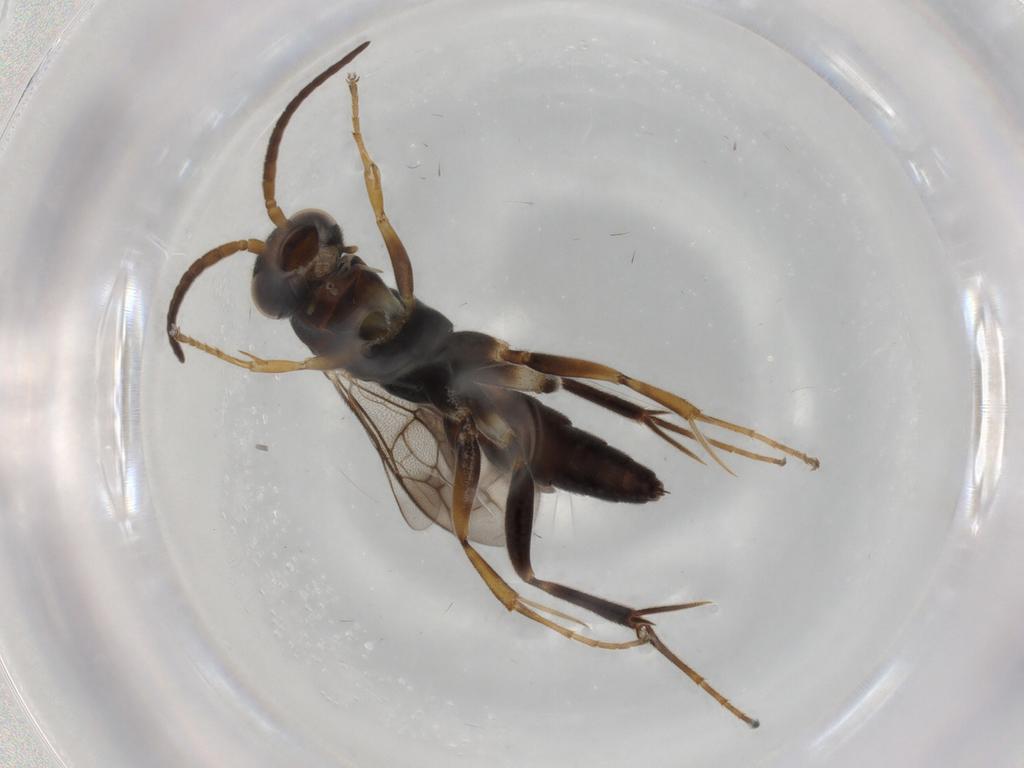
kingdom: Animalia
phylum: Arthropoda
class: Insecta
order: Hymenoptera
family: Pompilidae
